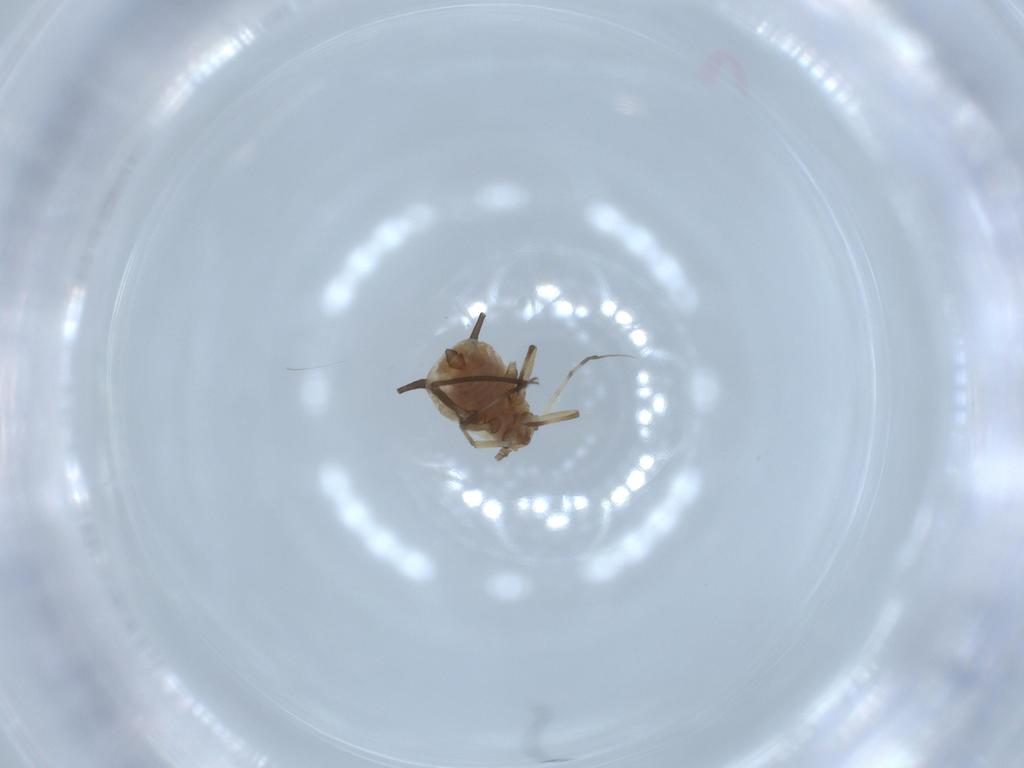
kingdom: Animalia
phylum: Arthropoda
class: Insecta
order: Hemiptera
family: Aphididae
